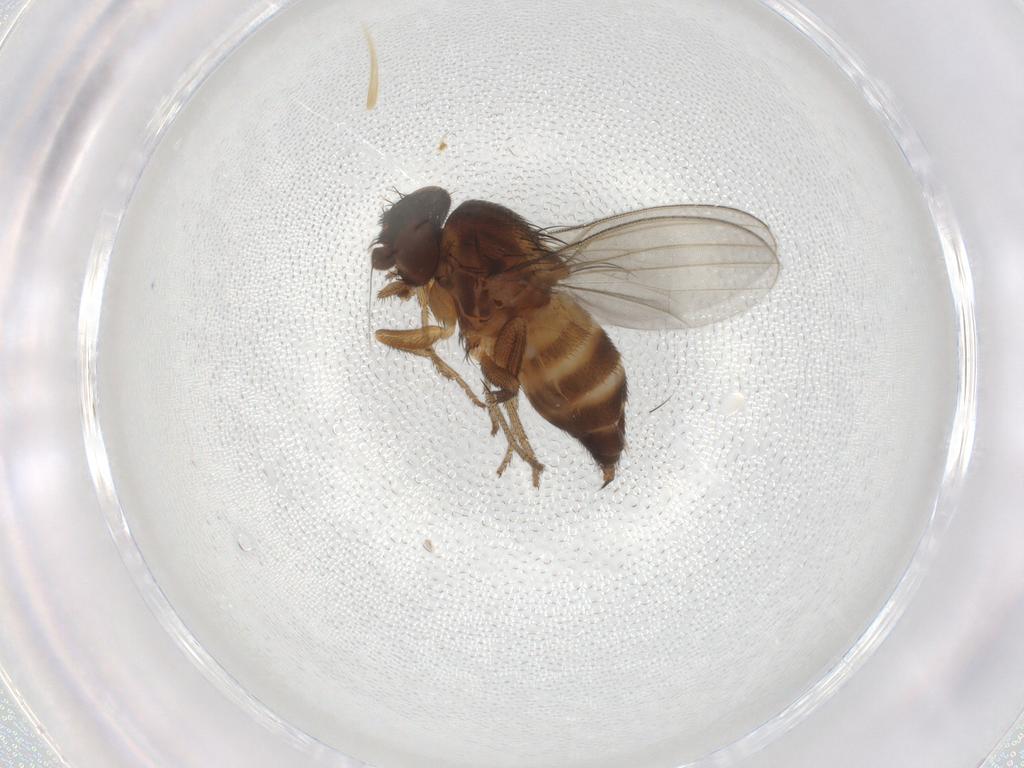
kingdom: Animalia
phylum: Arthropoda
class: Insecta
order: Diptera
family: Milichiidae
